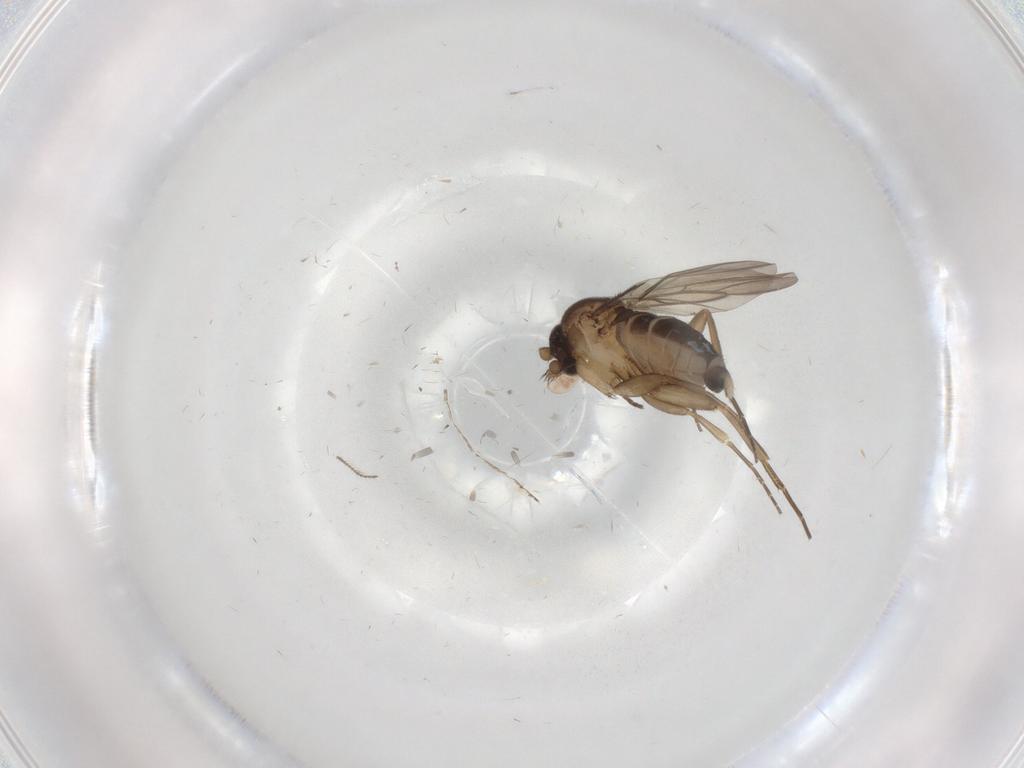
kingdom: Animalia
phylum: Arthropoda
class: Insecta
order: Diptera
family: Sciaridae
